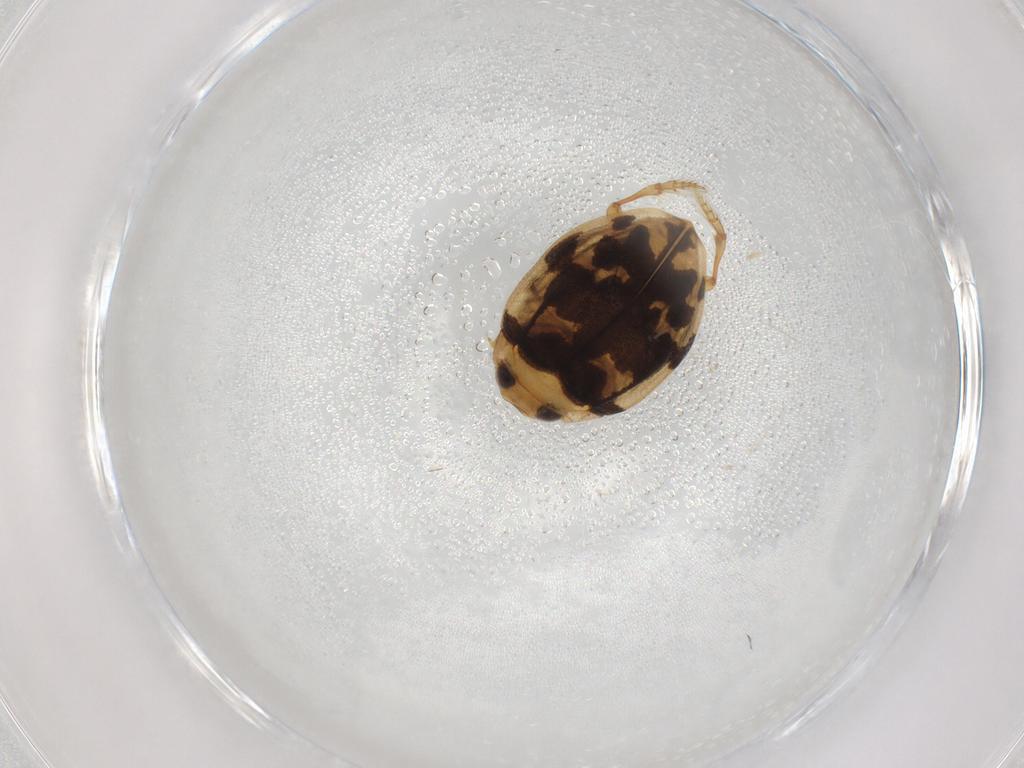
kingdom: Animalia
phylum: Arthropoda
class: Insecta
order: Coleoptera
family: Dytiscidae
